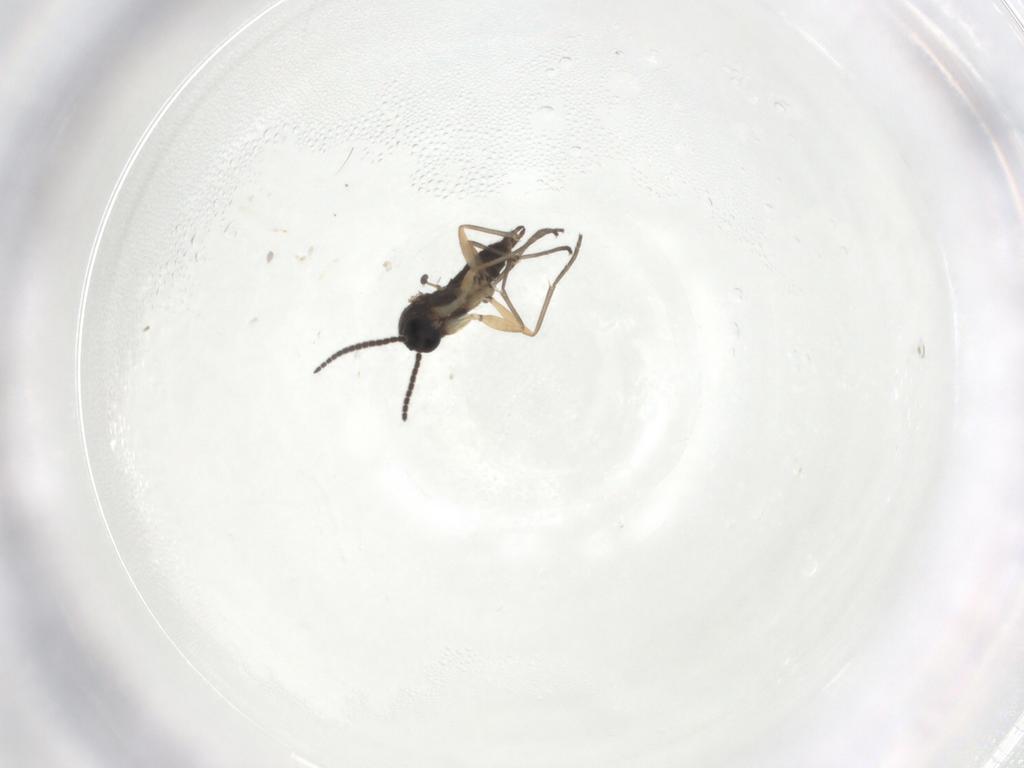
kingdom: Animalia
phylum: Arthropoda
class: Insecta
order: Diptera
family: Sciaridae
